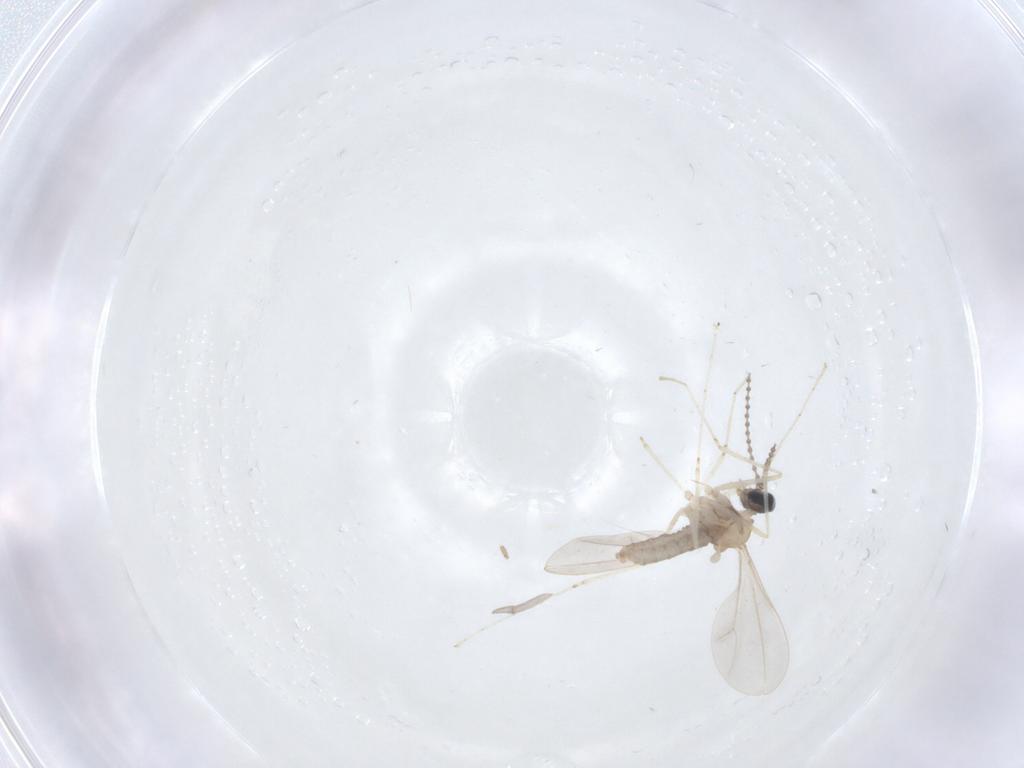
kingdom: Animalia
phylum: Arthropoda
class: Insecta
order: Diptera
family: Cecidomyiidae
